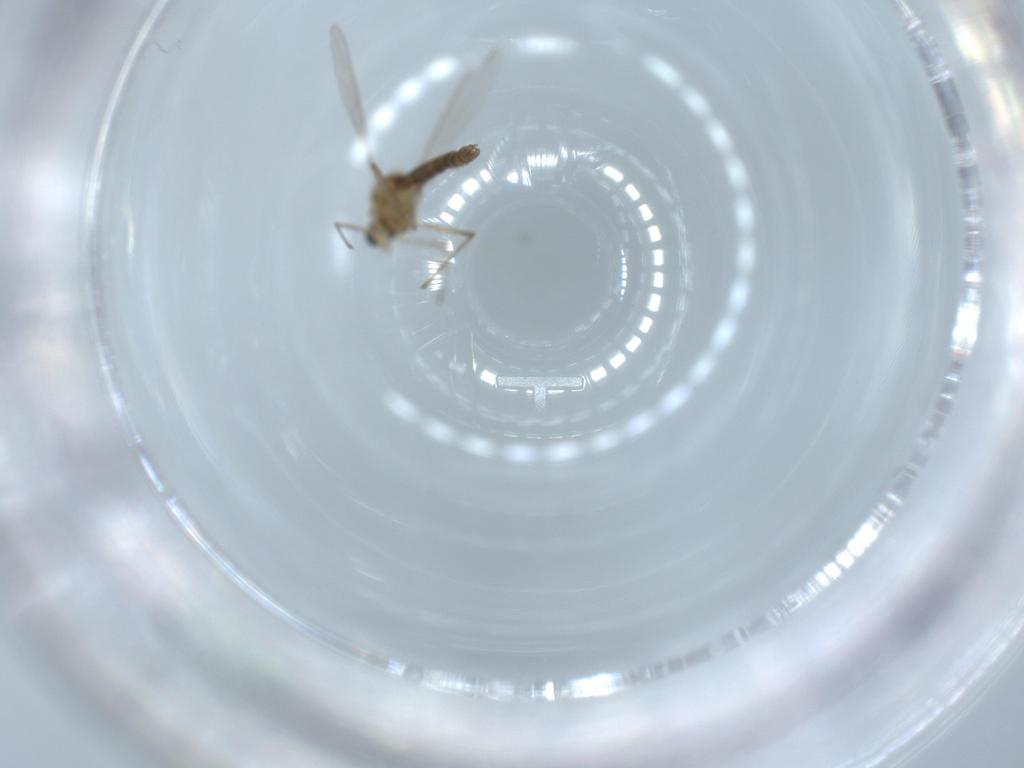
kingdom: Animalia
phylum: Arthropoda
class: Insecta
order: Diptera
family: Chironomidae
